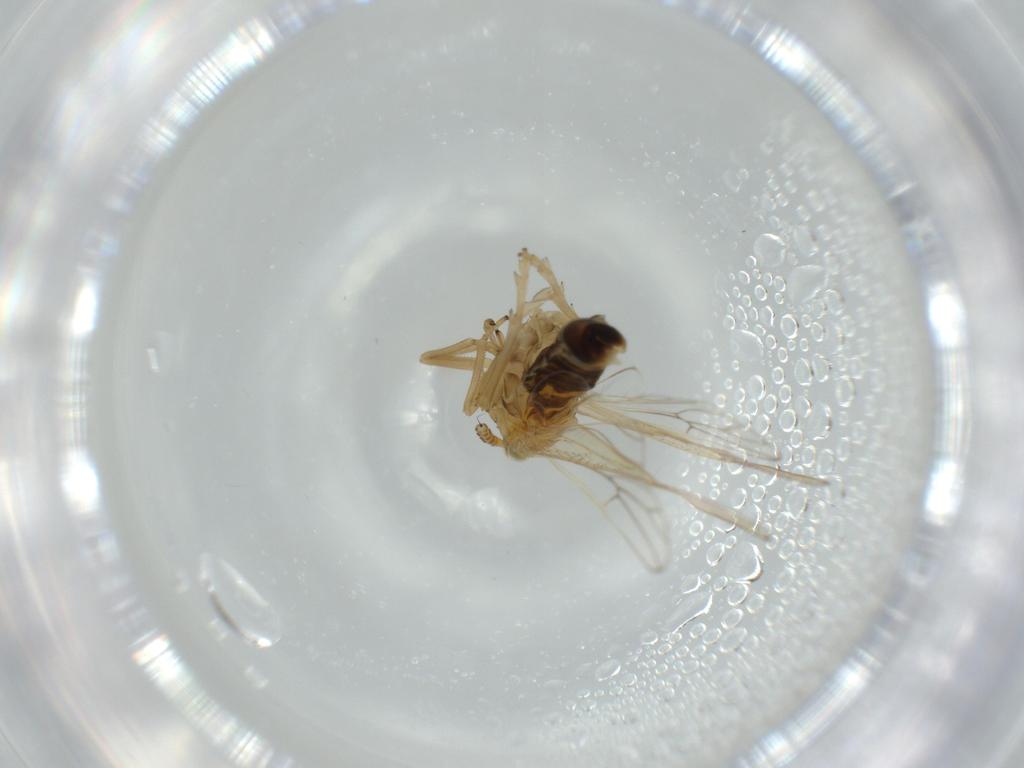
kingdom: Animalia
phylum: Arthropoda
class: Insecta
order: Hemiptera
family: Delphacidae
